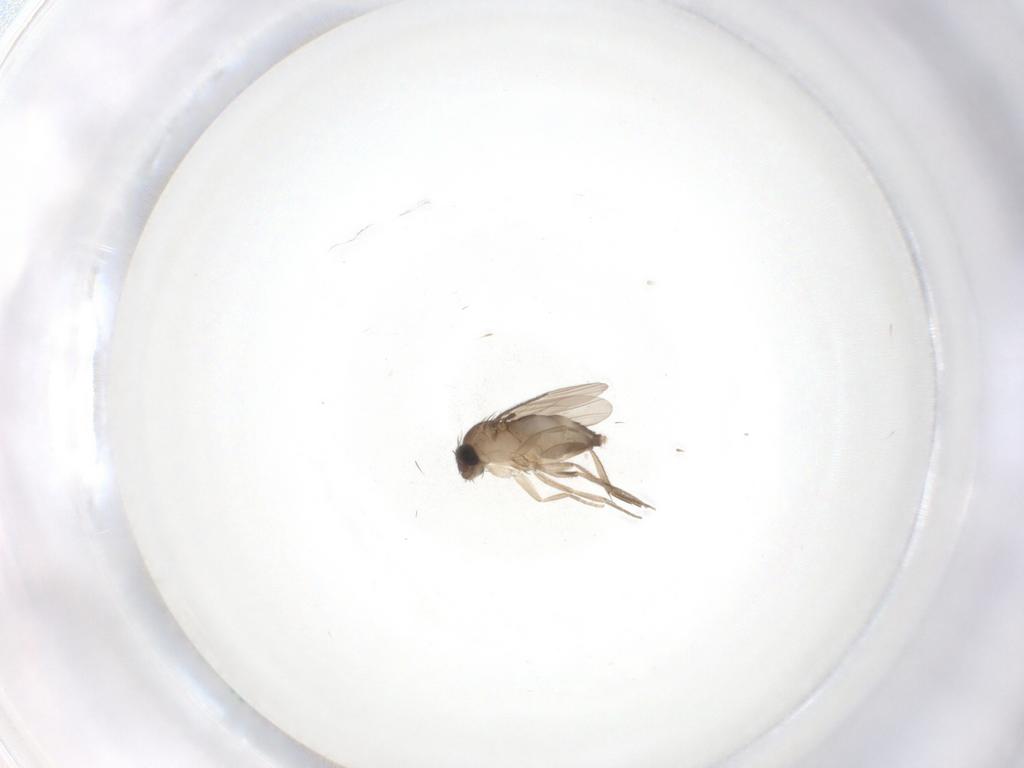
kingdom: Animalia
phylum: Arthropoda
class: Insecta
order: Diptera
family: Phoridae
